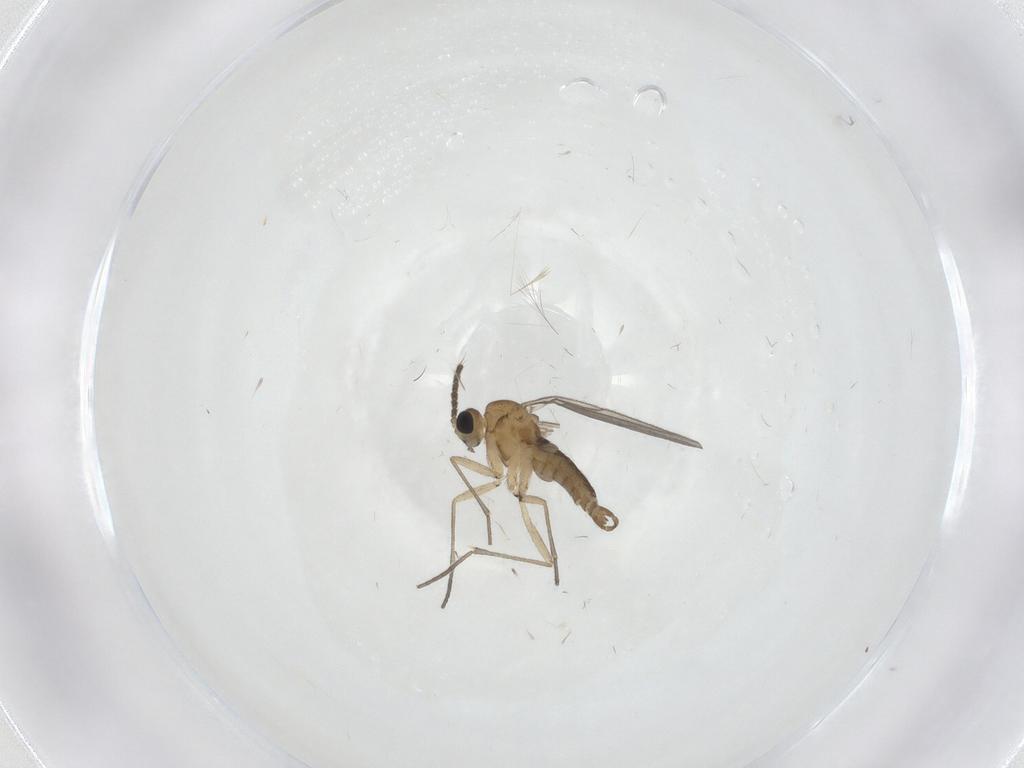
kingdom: Animalia
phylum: Arthropoda
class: Insecta
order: Diptera
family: Sciaridae
